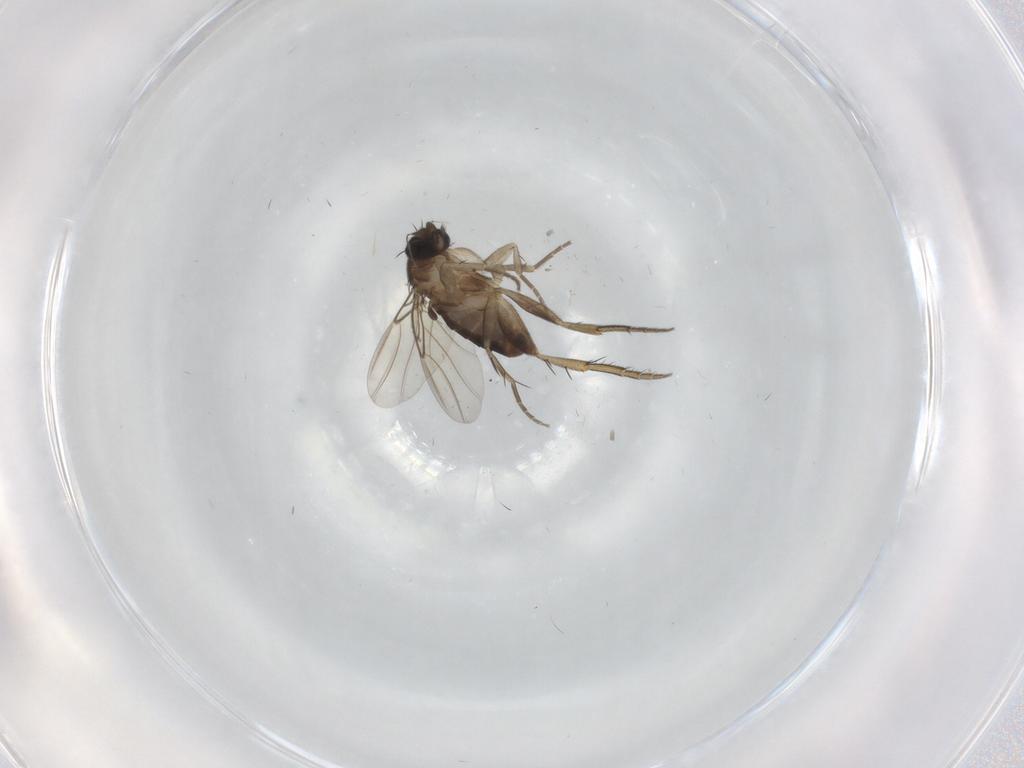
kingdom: Animalia
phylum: Arthropoda
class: Insecta
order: Diptera
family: Phoridae
